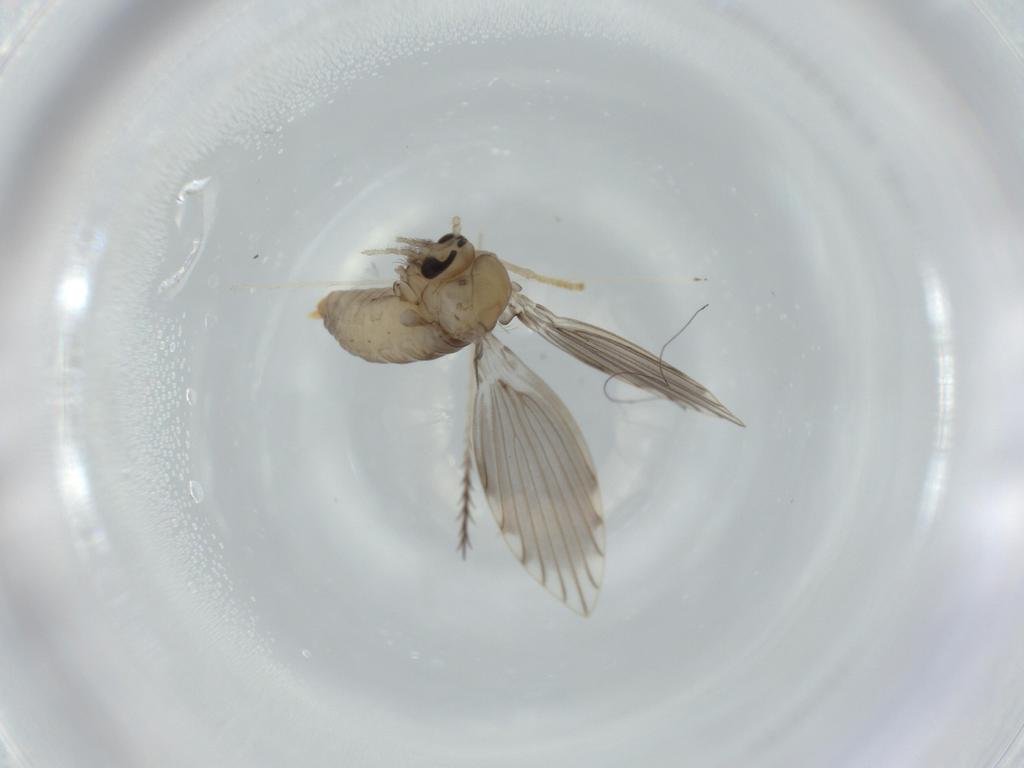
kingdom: Animalia
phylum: Arthropoda
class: Insecta
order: Diptera
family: Psychodidae
